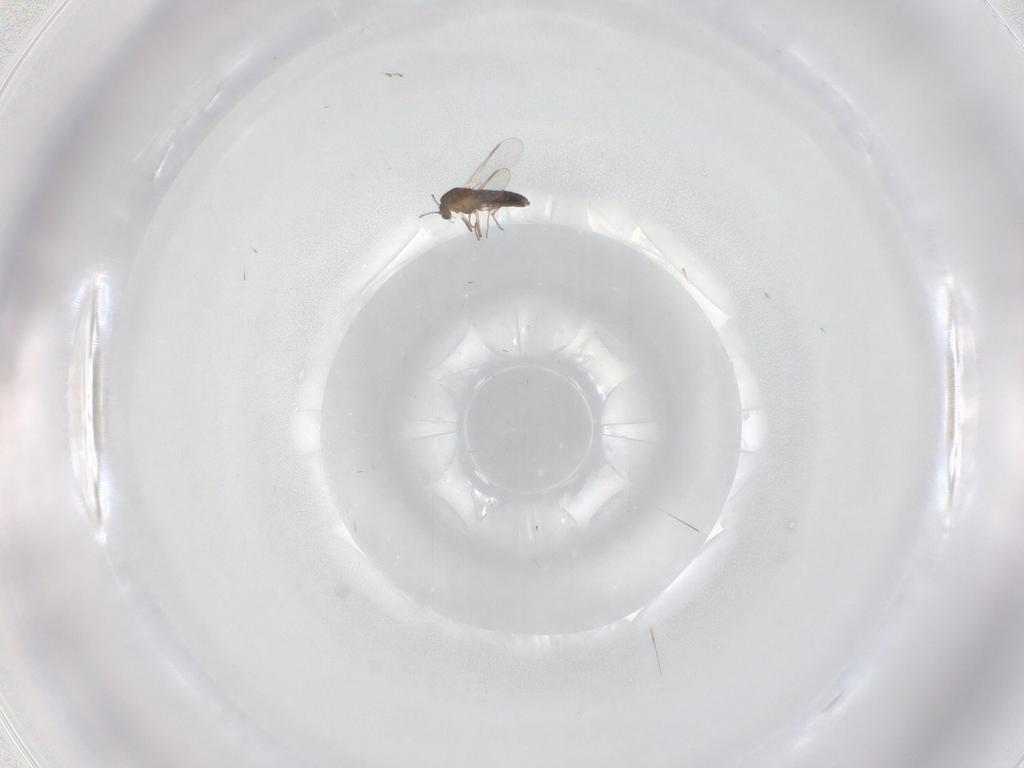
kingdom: Animalia
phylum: Arthropoda
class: Insecta
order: Diptera
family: Chironomidae
